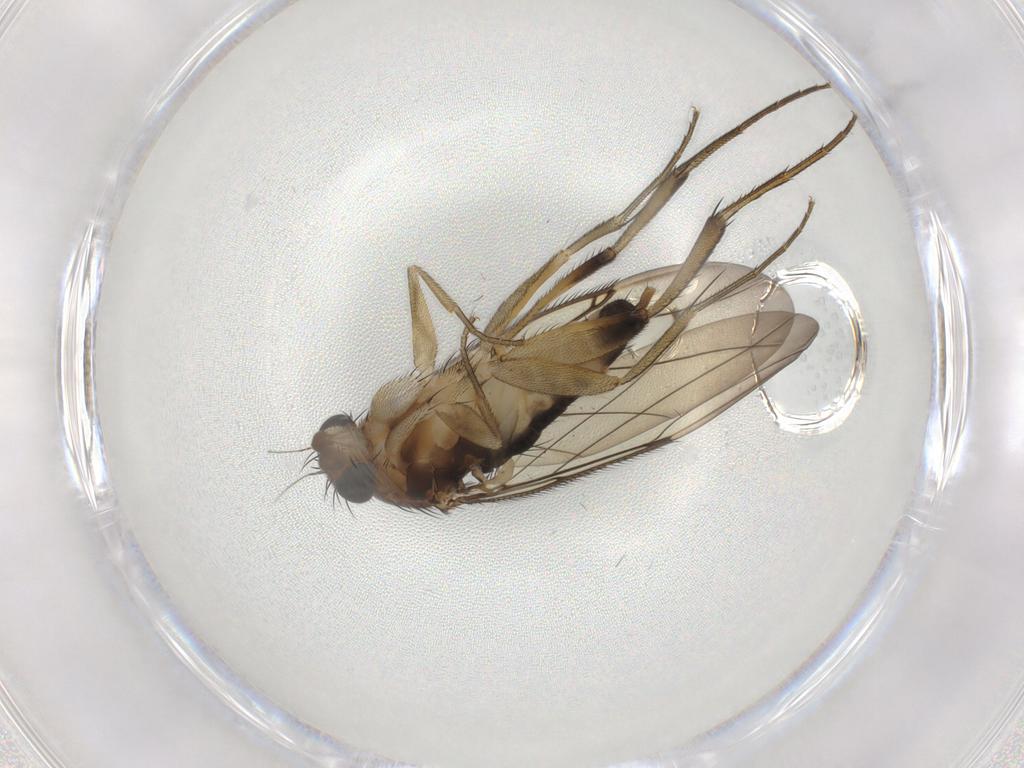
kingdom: Animalia
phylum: Arthropoda
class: Insecta
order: Diptera
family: Phoridae
